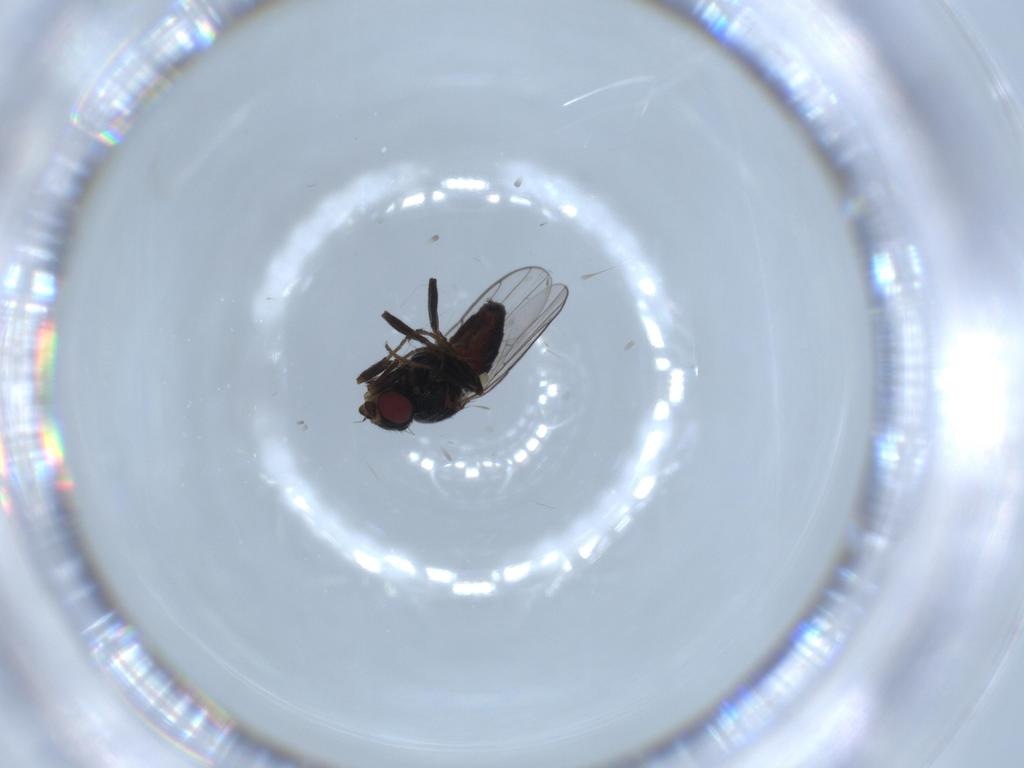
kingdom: Animalia
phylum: Arthropoda
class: Insecta
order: Diptera
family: Chloropidae
